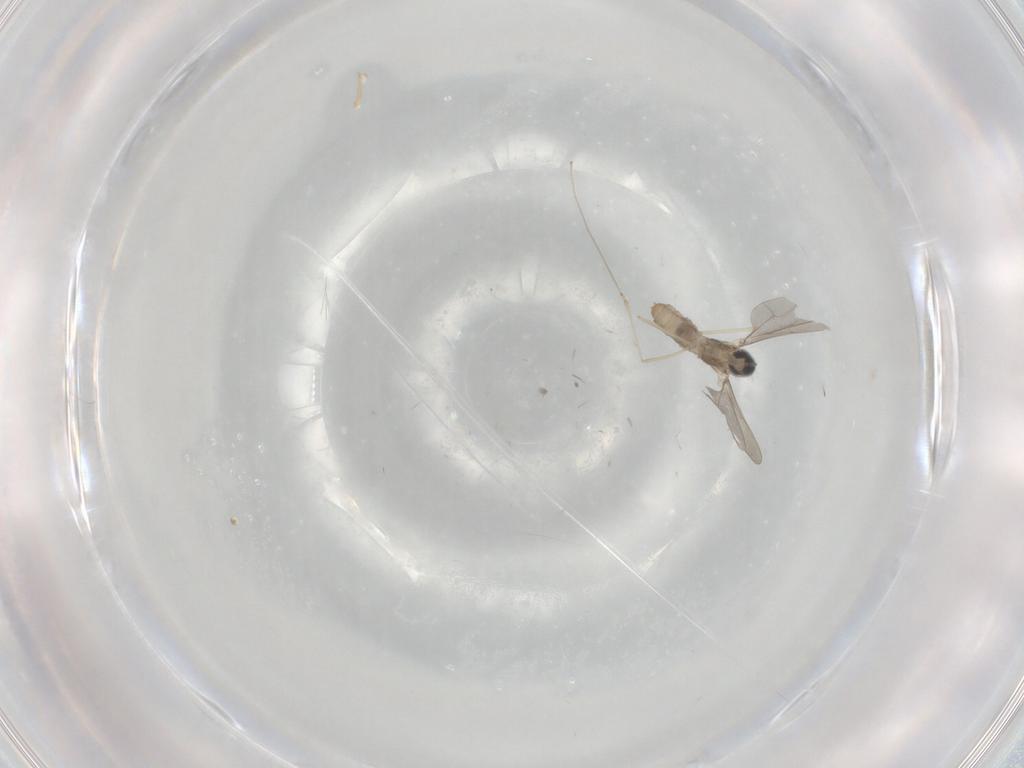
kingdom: Animalia
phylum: Arthropoda
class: Insecta
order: Diptera
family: Cecidomyiidae
